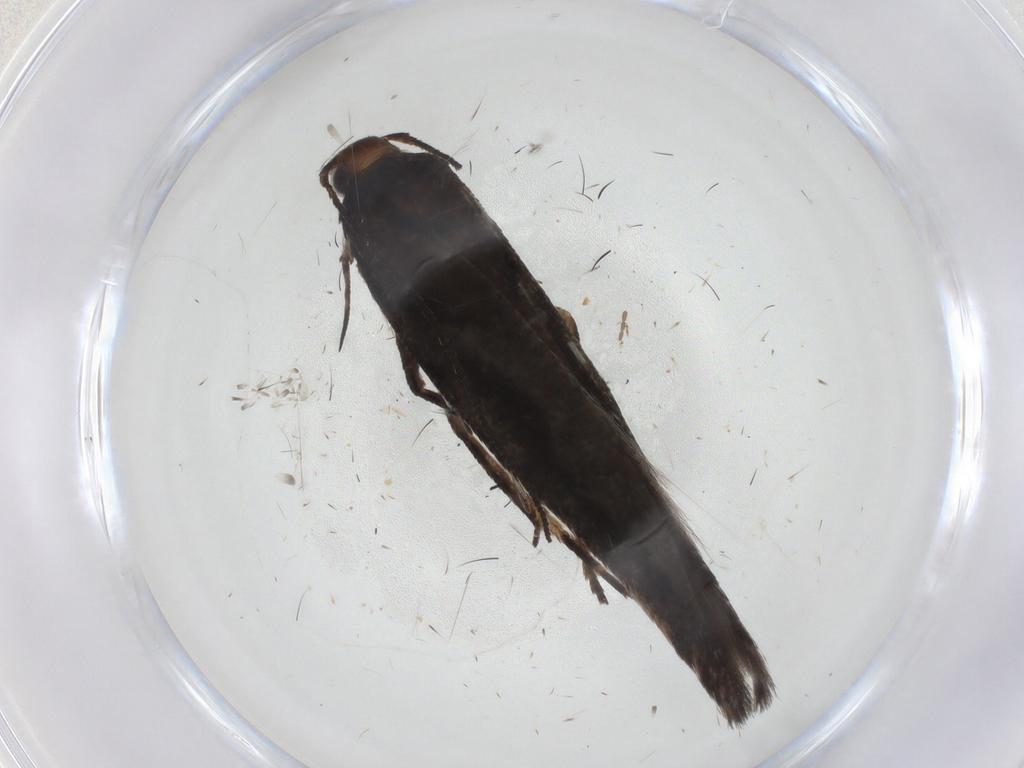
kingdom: Animalia
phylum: Arthropoda
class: Insecta
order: Lepidoptera
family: Gelechiidae
